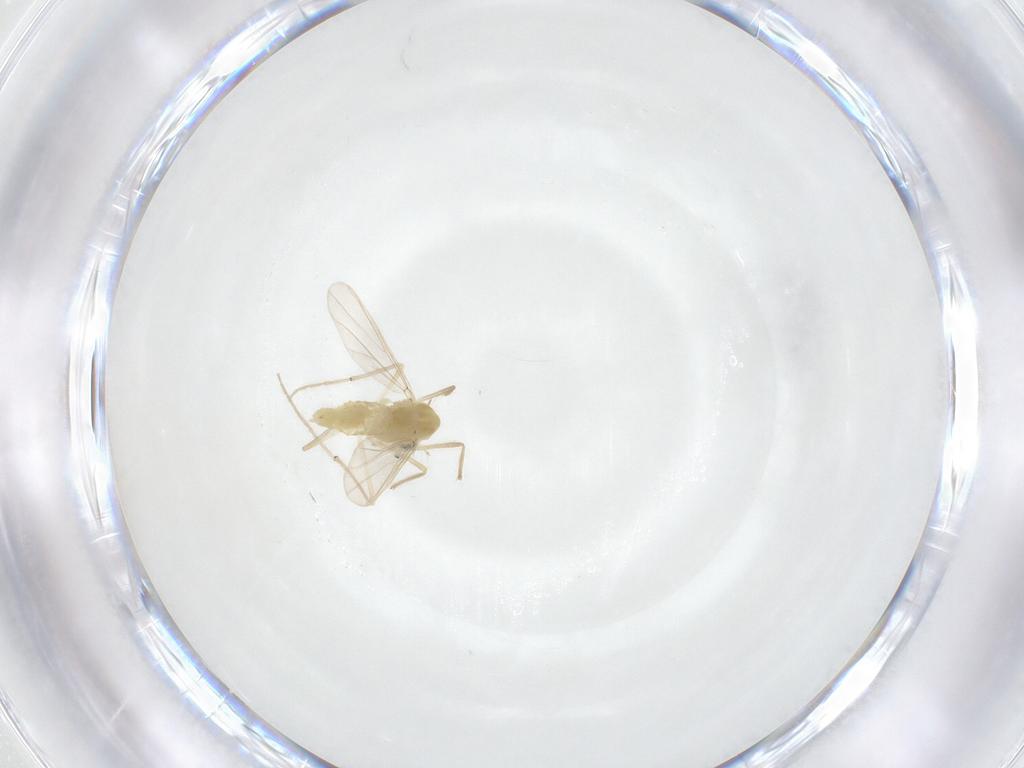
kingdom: Animalia
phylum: Arthropoda
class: Insecta
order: Diptera
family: Chironomidae
